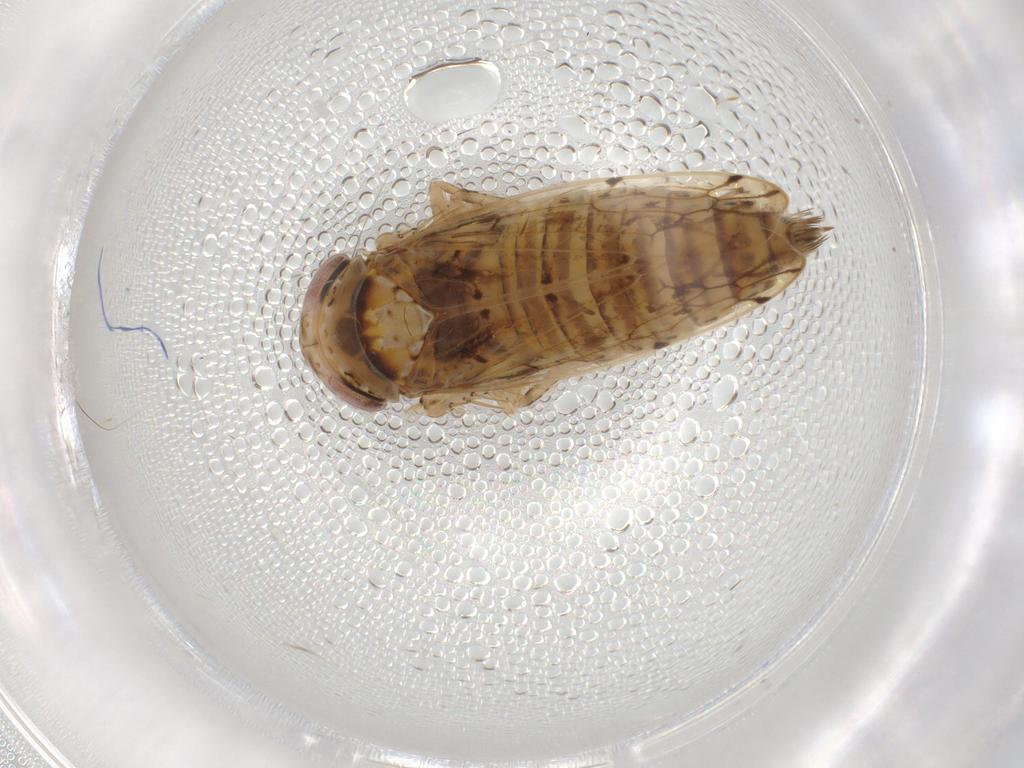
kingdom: Animalia
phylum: Arthropoda
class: Insecta
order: Hemiptera
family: Cicadellidae
